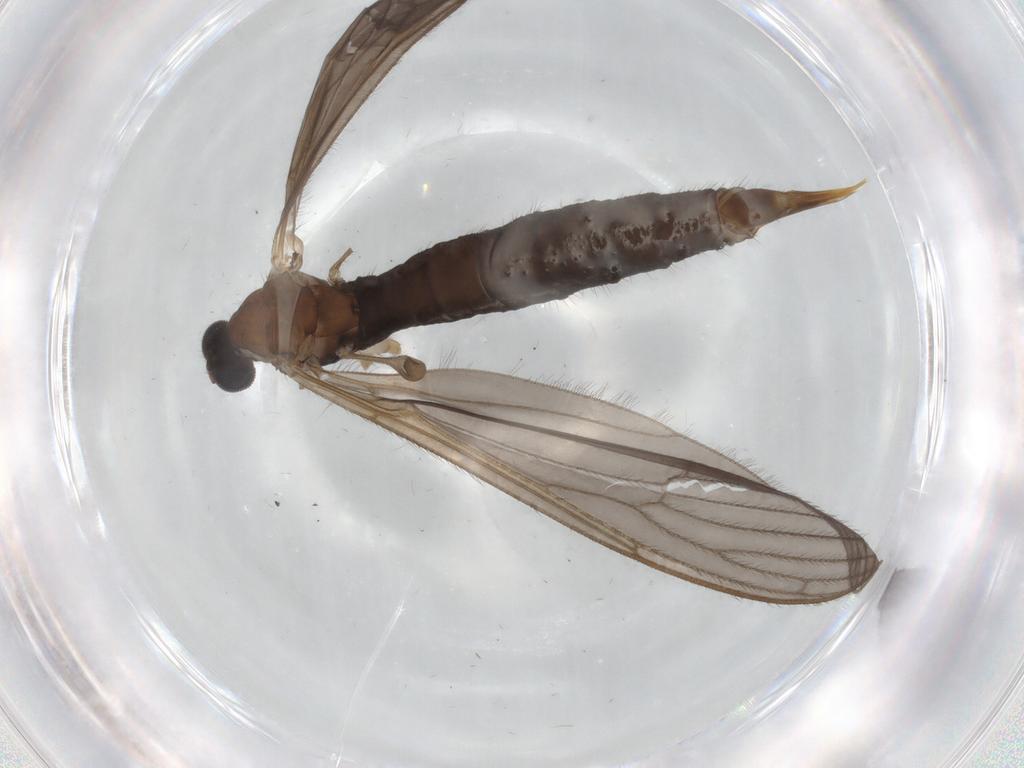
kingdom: Animalia
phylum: Arthropoda
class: Insecta
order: Diptera
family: Limoniidae
